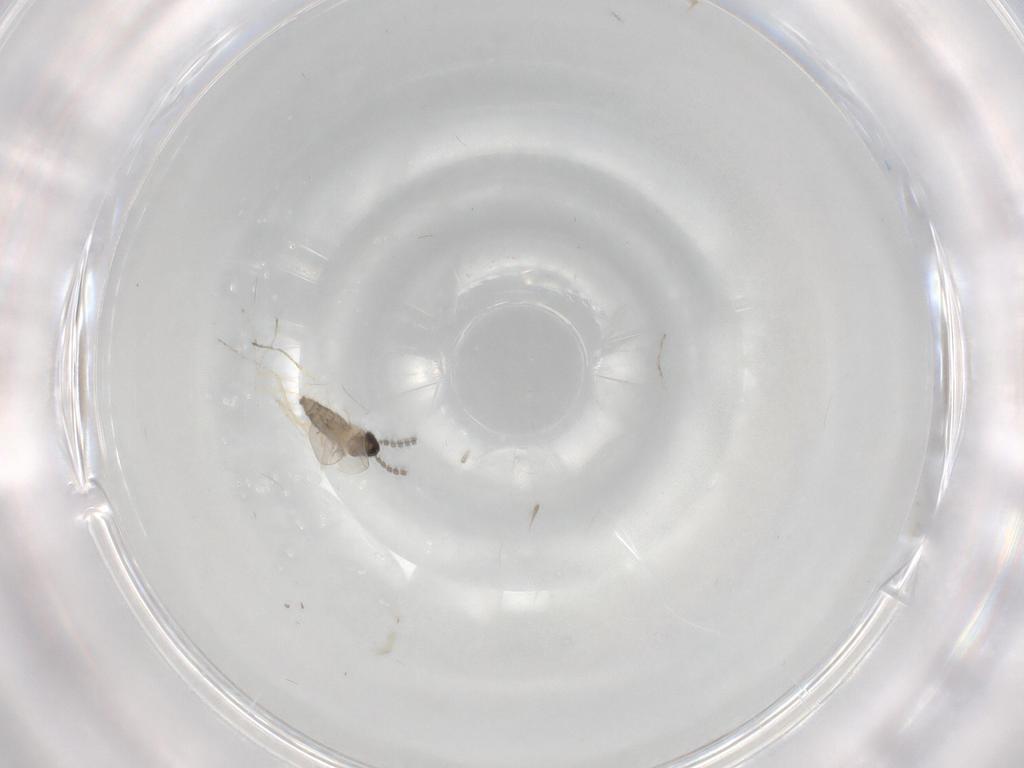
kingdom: Animalia
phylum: Arthropoda
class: Insecta
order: Diptera
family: Cecidomyiidae
